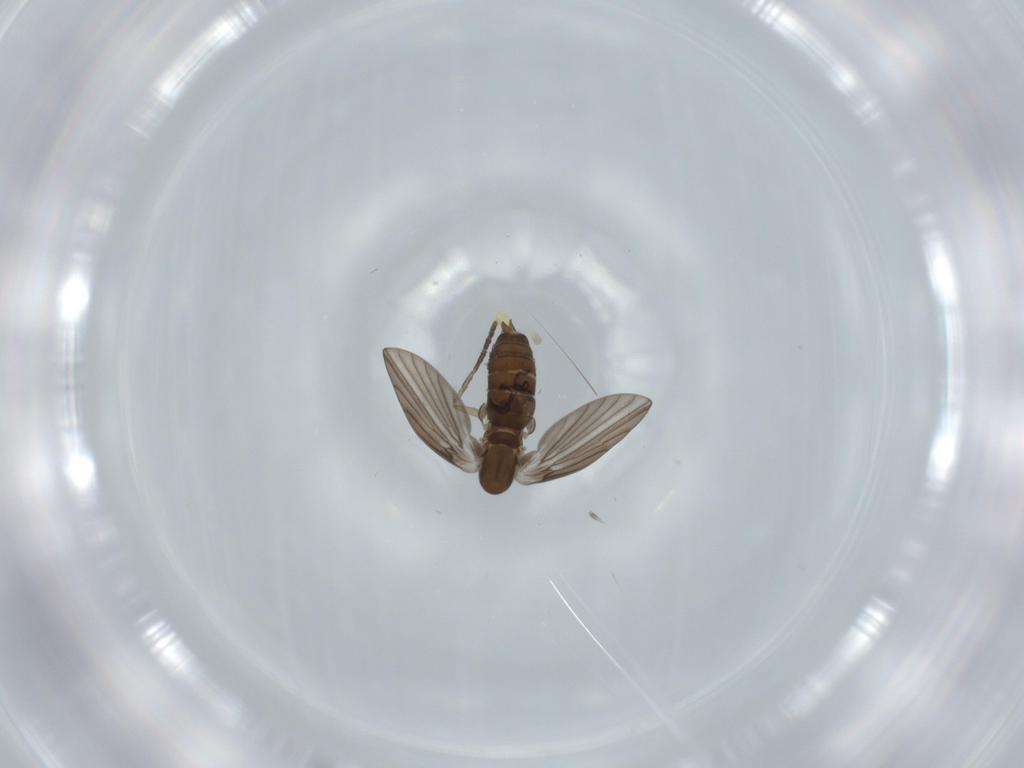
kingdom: Animalia
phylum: Arthropoda
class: Insecta
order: Diptera
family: Psychodidae
